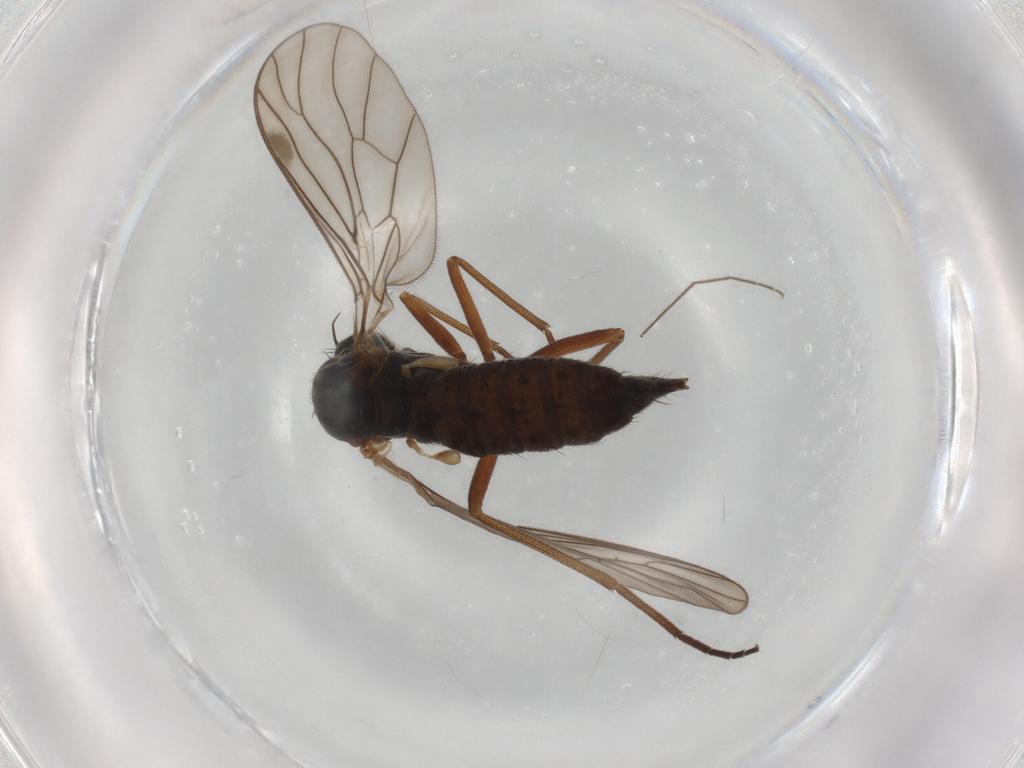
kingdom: Animalia
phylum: Arthropoda
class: Insecta
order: Diptera
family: Empididae
